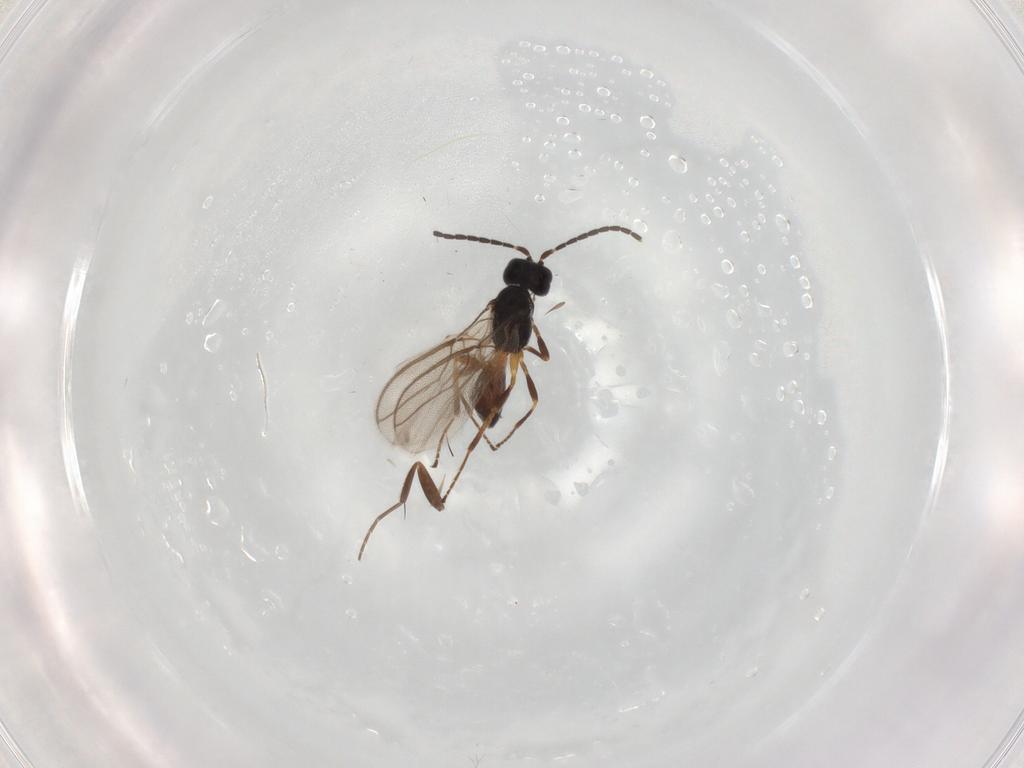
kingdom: Animalia
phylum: Arthropoda
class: Insecta
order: Hymenoptera
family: Braconidae
